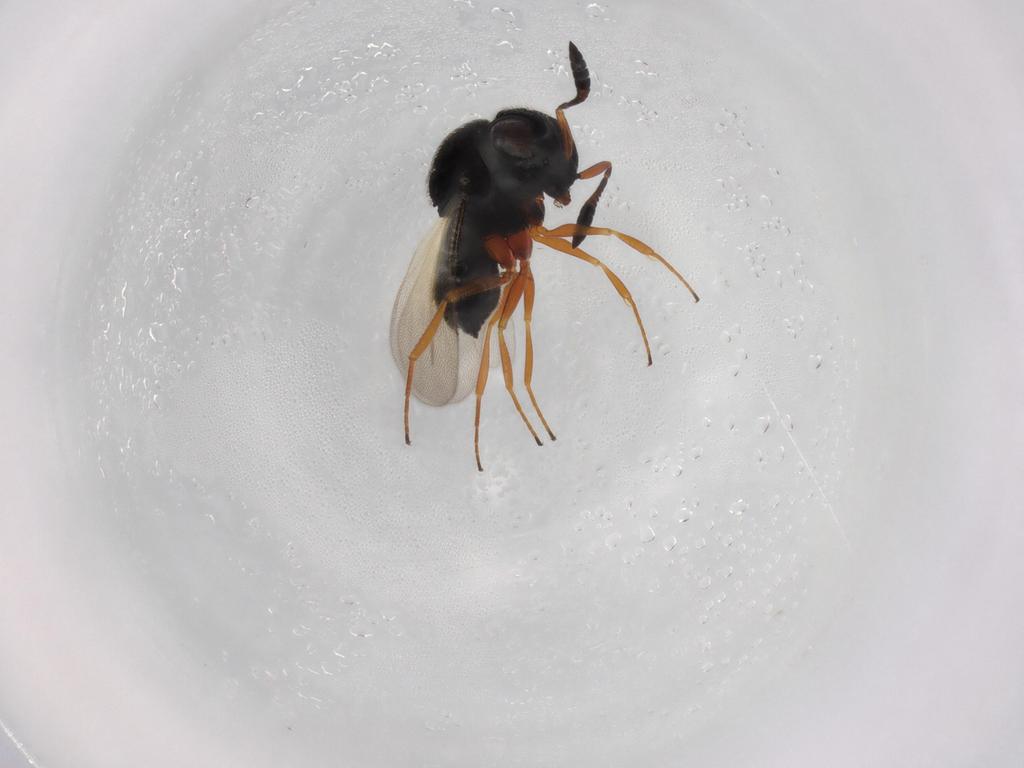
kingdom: Animalia
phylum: Arthropoda
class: Insecta
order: Hymenoptera
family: Scelionidae
